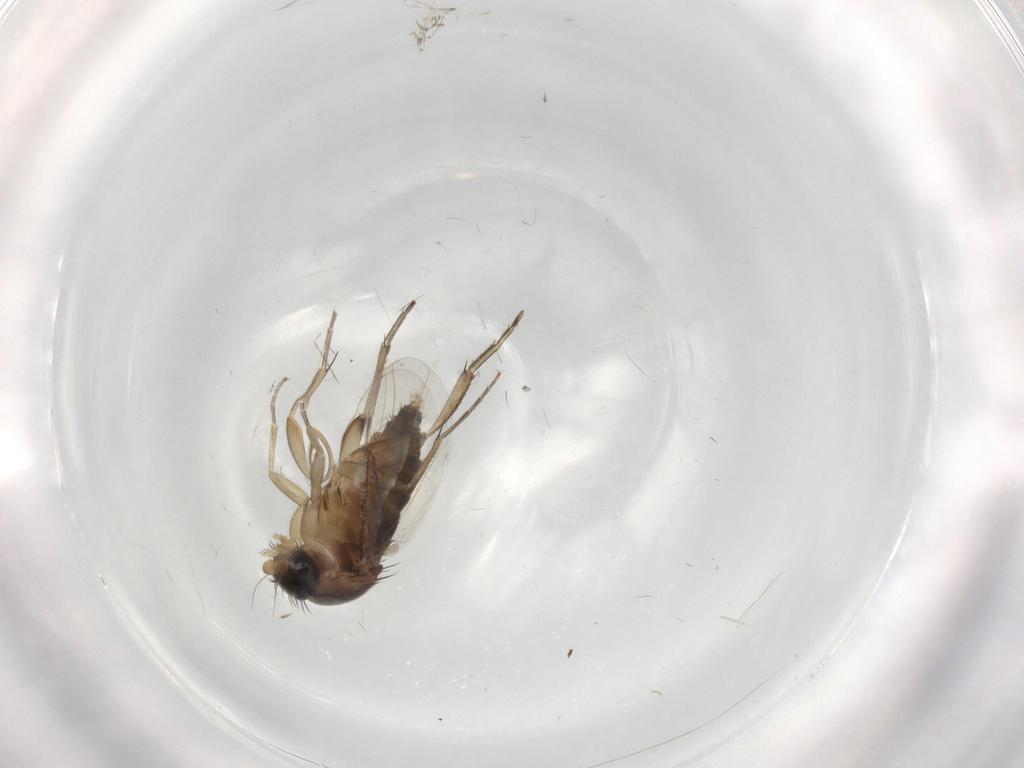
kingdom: Animalia
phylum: Arthropoda
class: Insecta
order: Diptera
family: Phoridae
